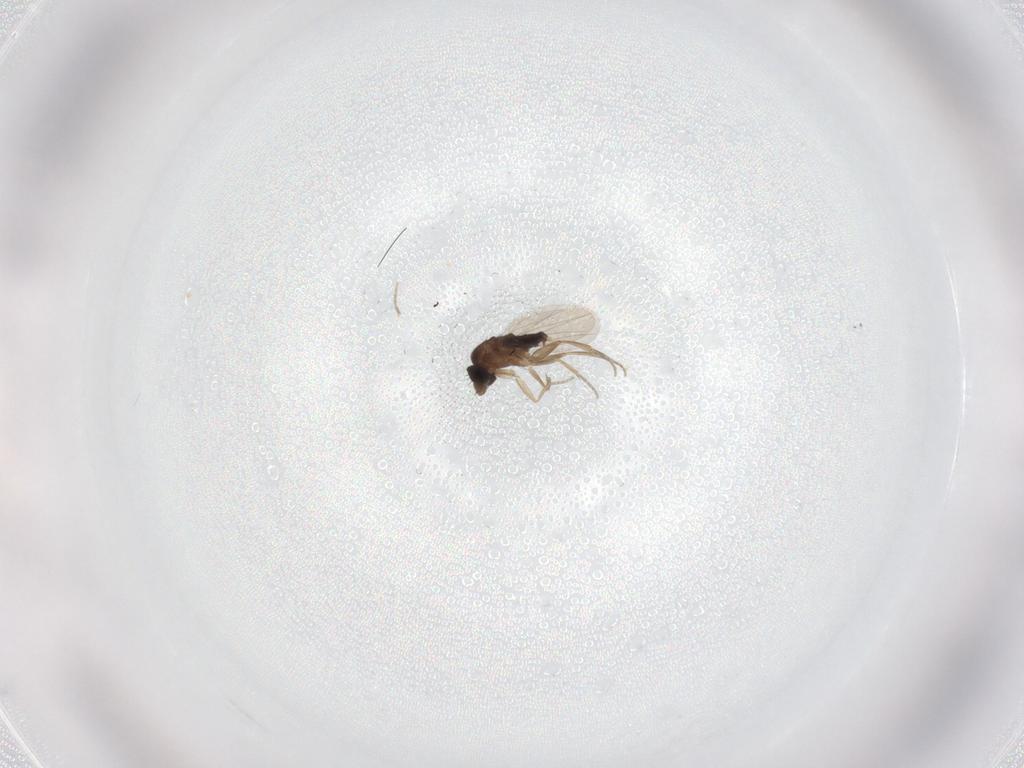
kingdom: Animalia
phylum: Arthropoda
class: Insecta
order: Diptera
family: Phoridae
